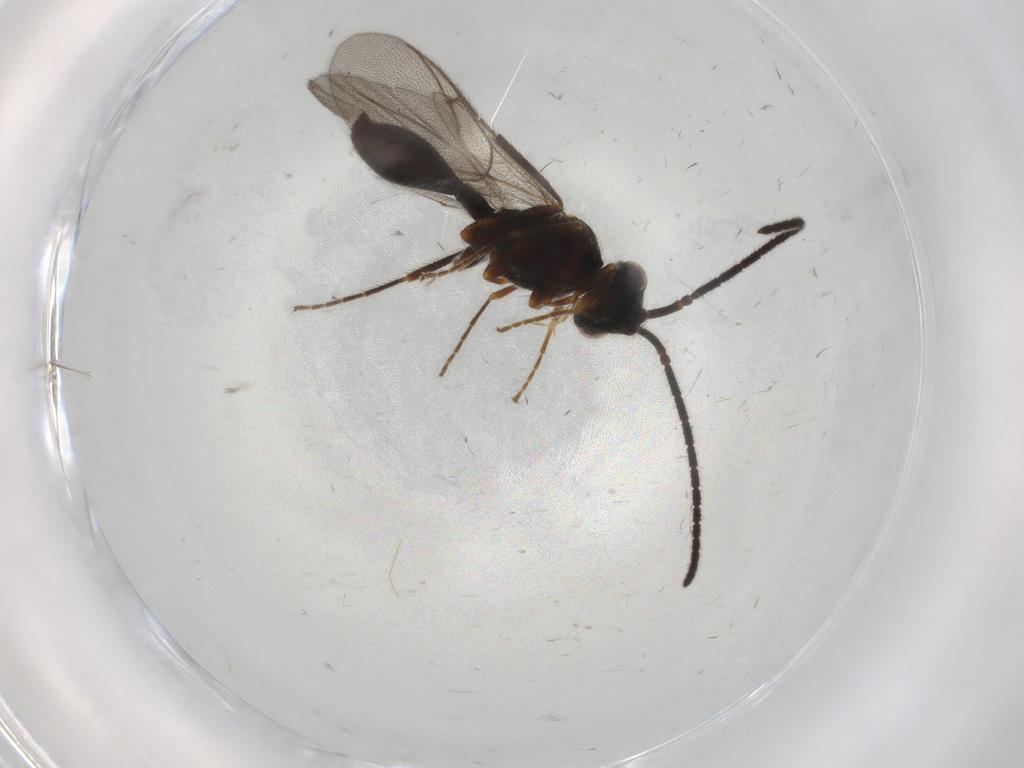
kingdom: Animalia
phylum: Arthropoda
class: Insecta
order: Hymenoptera
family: Diapriidae
